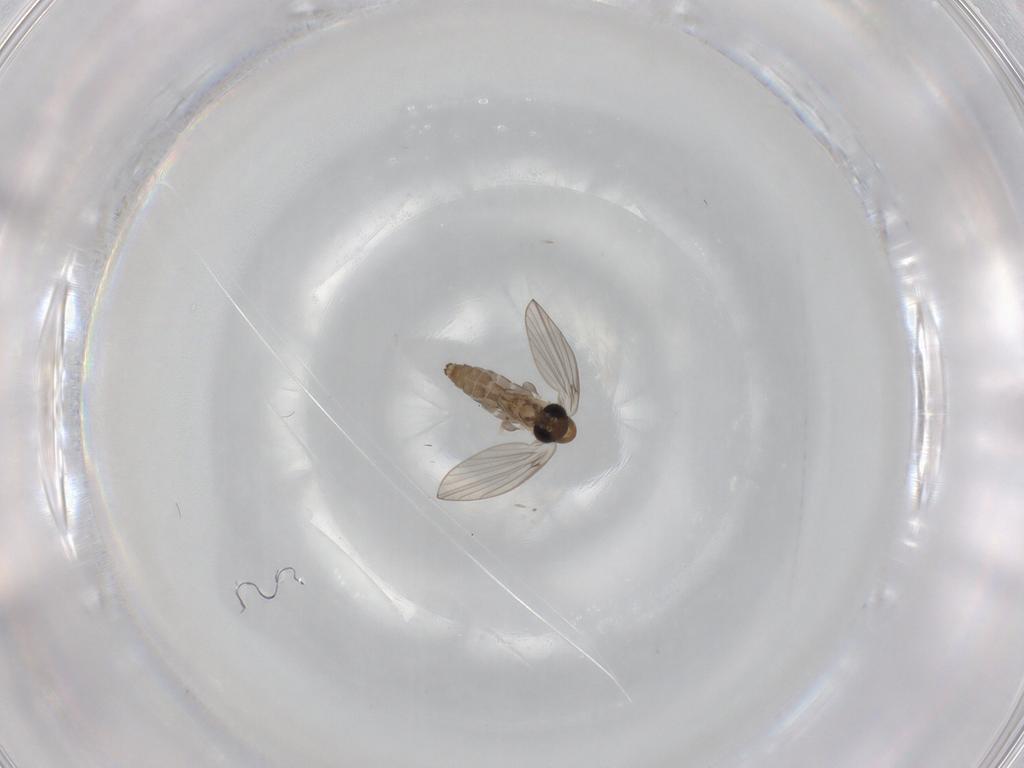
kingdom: Animalia
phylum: Arthropoda
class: Insecta
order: Diptera
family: Psychodidae
